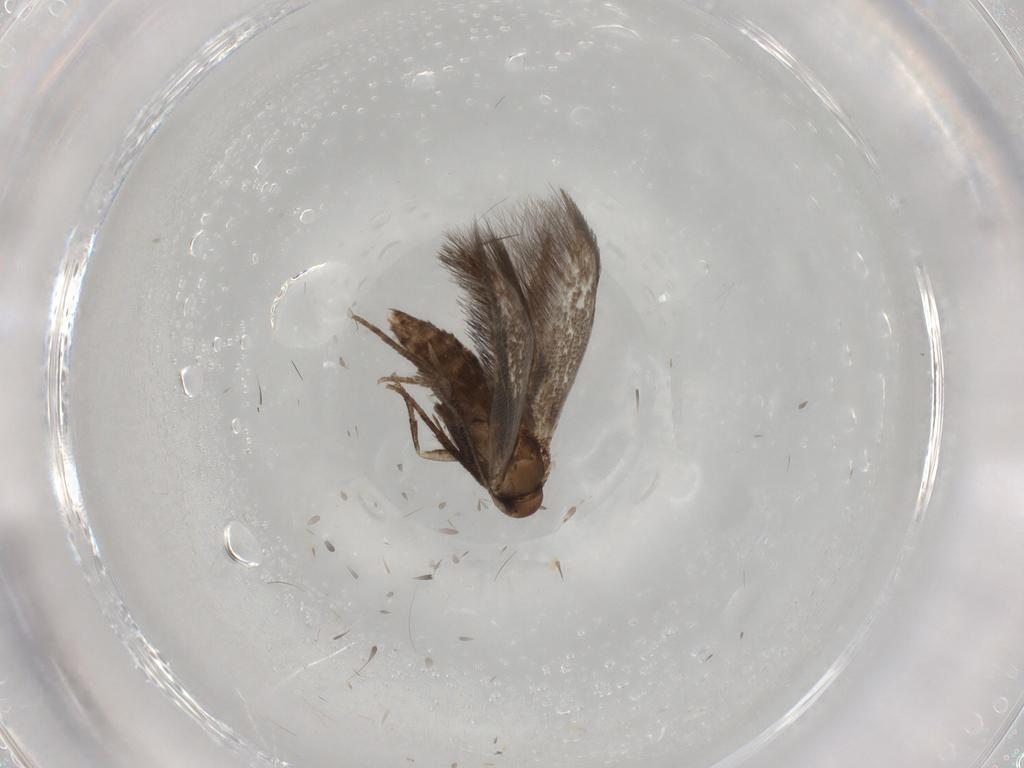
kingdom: Animalia
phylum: Arthropoda
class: Insecta
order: Lepidoptera
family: Gelechiidae
